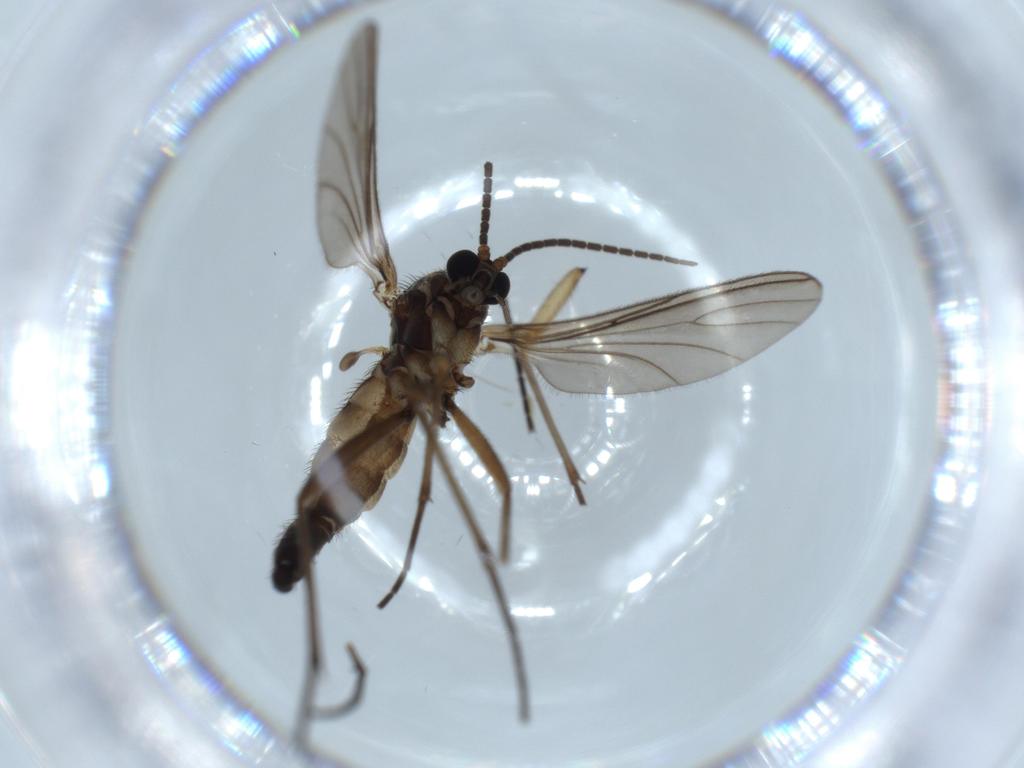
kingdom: Animalia
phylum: Arthropoda
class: Insecta
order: Diptera
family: Sciaridae
